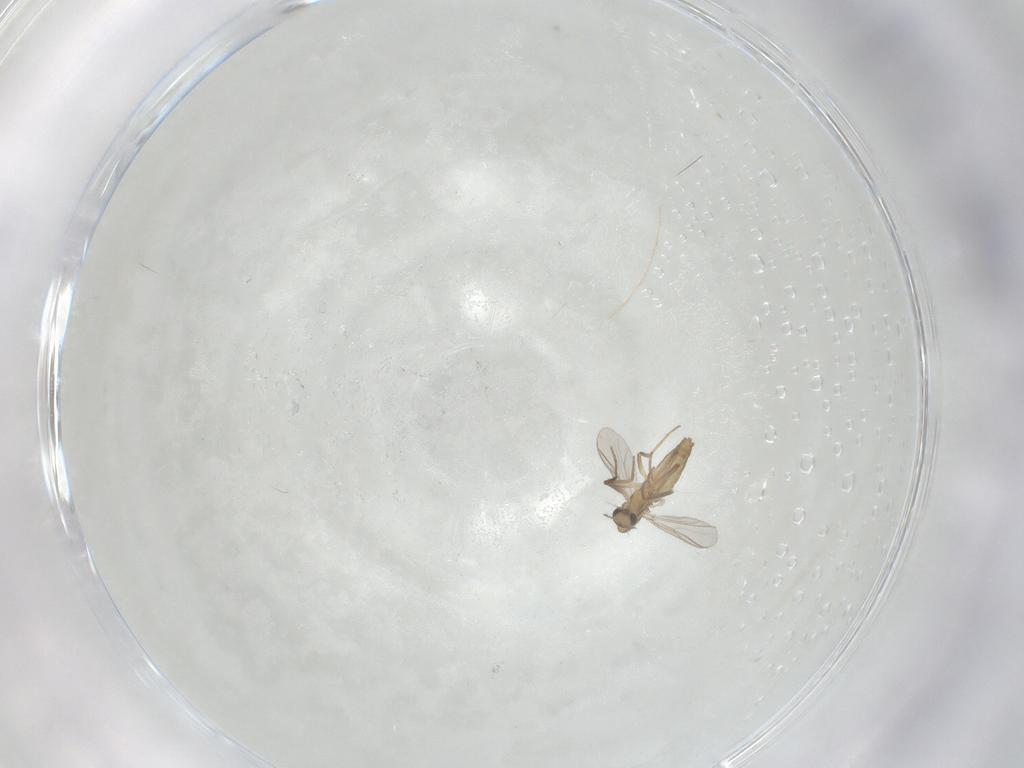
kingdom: Animalia
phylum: Arthropoda
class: Insecta
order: Diptera
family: Chironomidae
